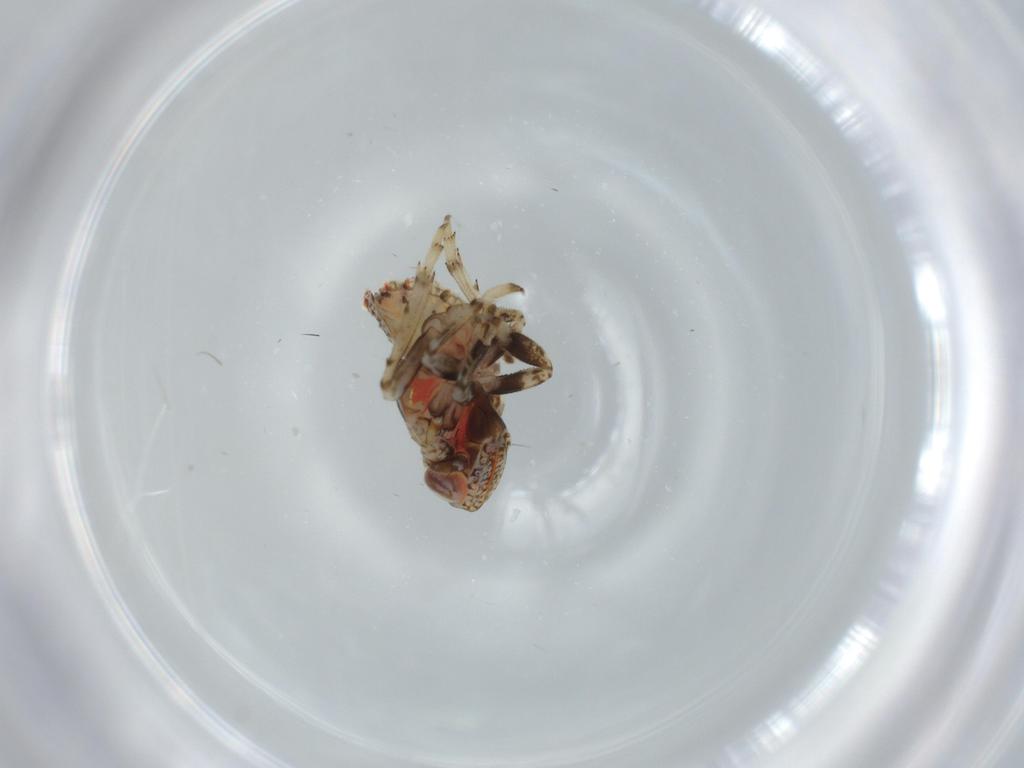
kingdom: Animalia
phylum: Arthropoda
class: Insecta
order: Hemiptera
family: Issidae
